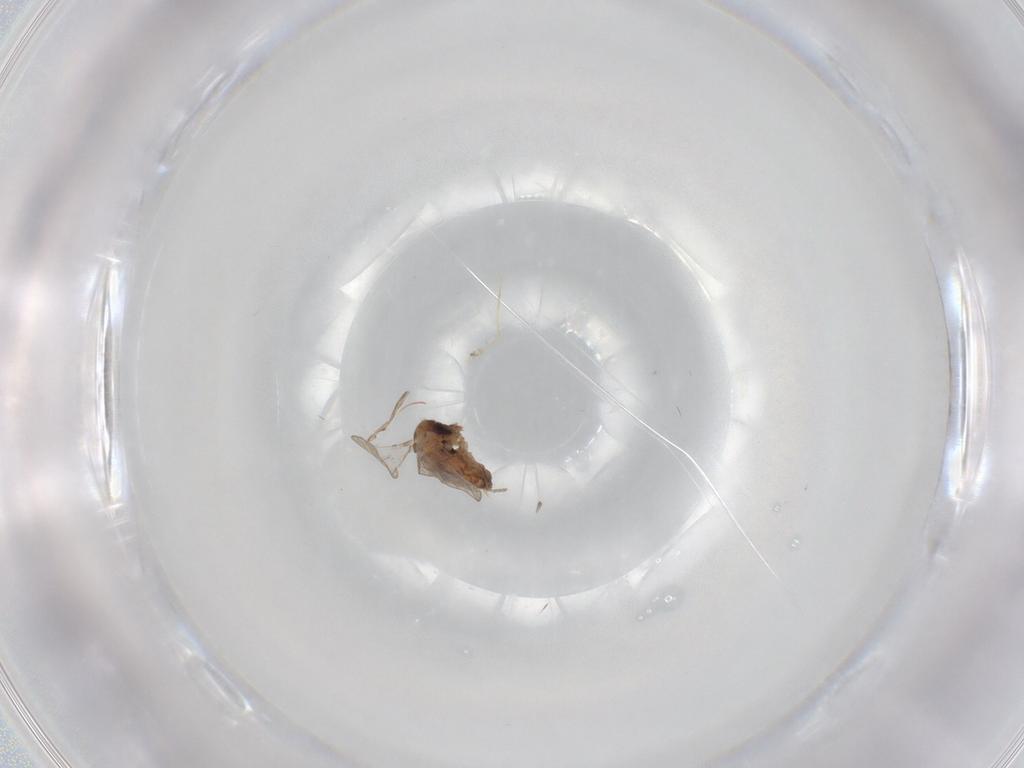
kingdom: Animalia
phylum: Arthropoda
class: Insecta
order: Diptera
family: Psychodidae
